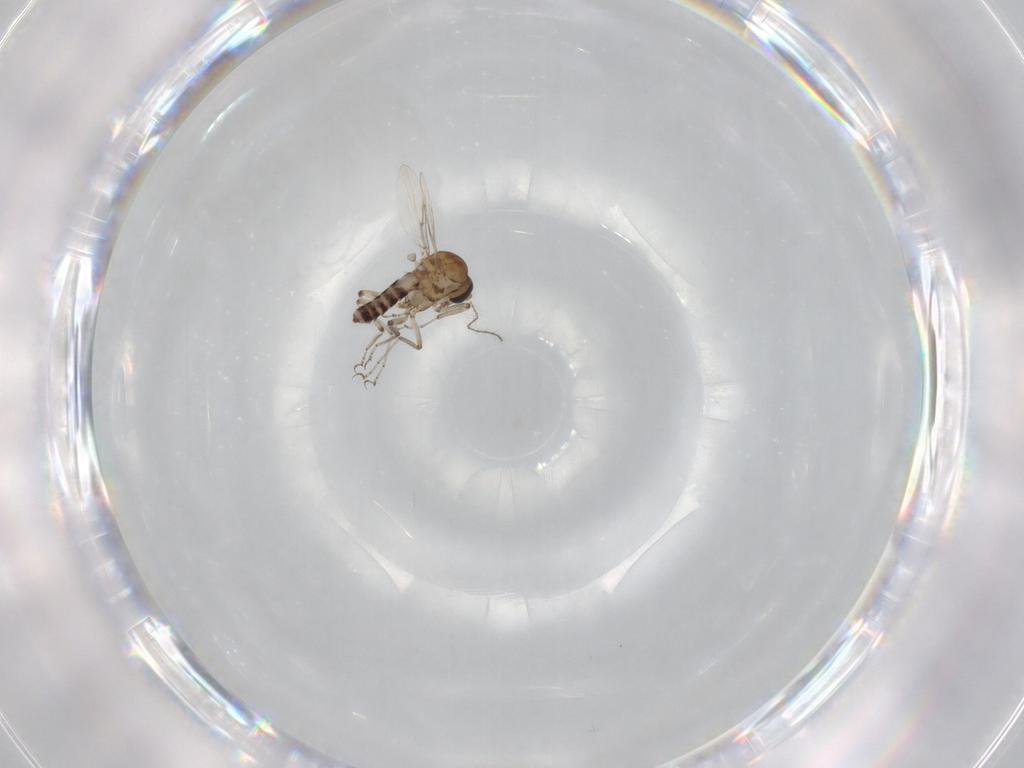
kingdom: Animalia
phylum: Arthropoda
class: Insecta
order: Diptera
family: Ceratopogonidae
